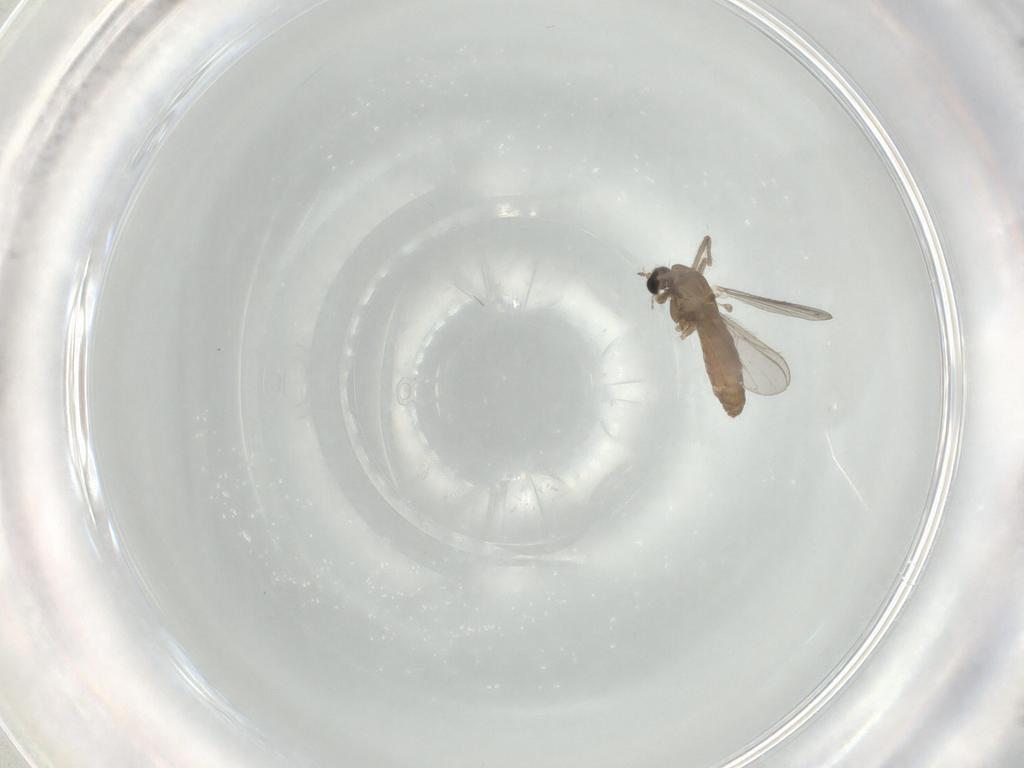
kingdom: Animalia
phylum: Arthropoda
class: Insecta
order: Diptera
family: Chironomidae
